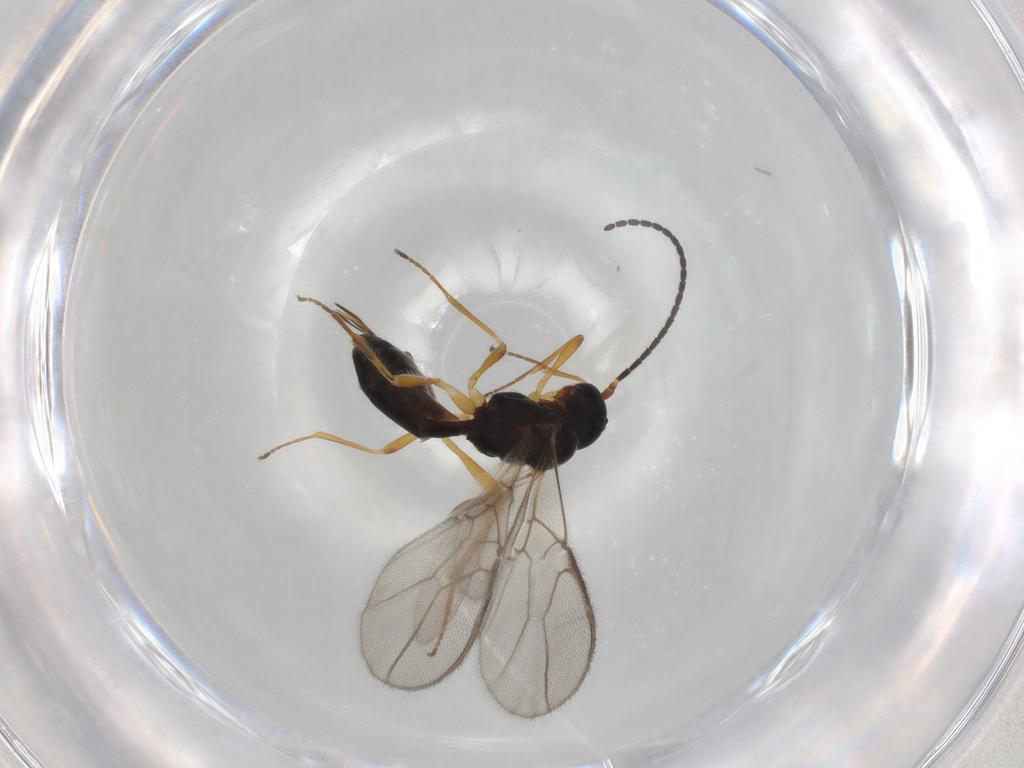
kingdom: Animalia
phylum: Arthropoda
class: Insecta
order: Hymenoptera
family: Braconidae
